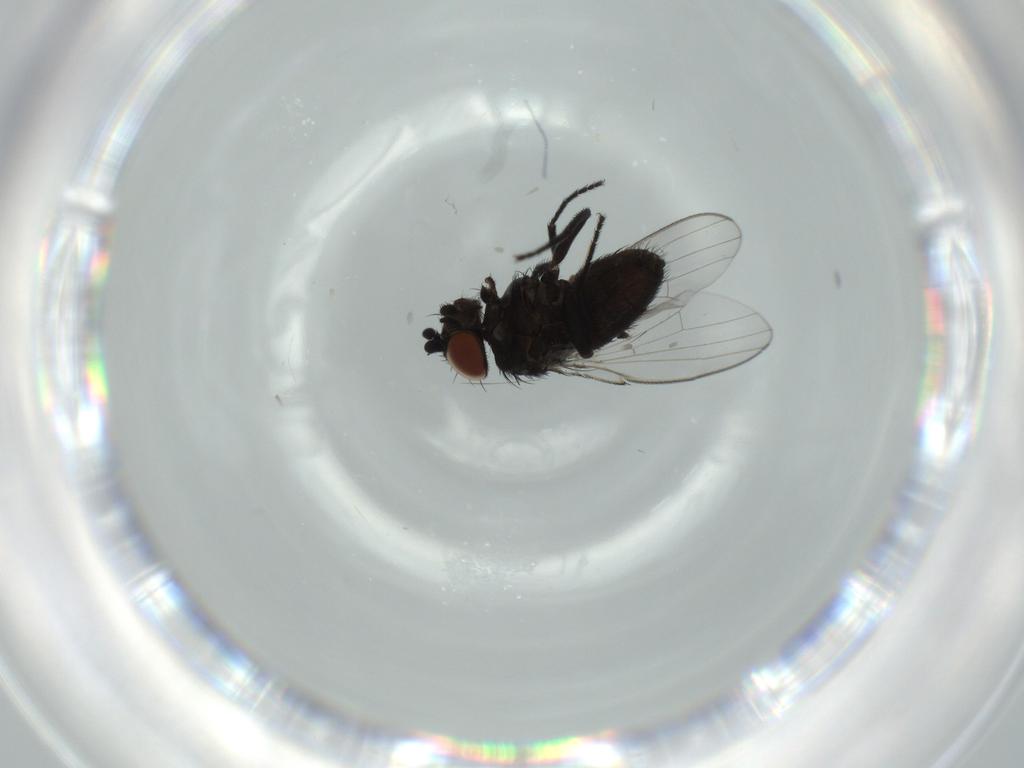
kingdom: Animalia
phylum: Arthropoda
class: Insecta
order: Diptera
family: Milichiidae
